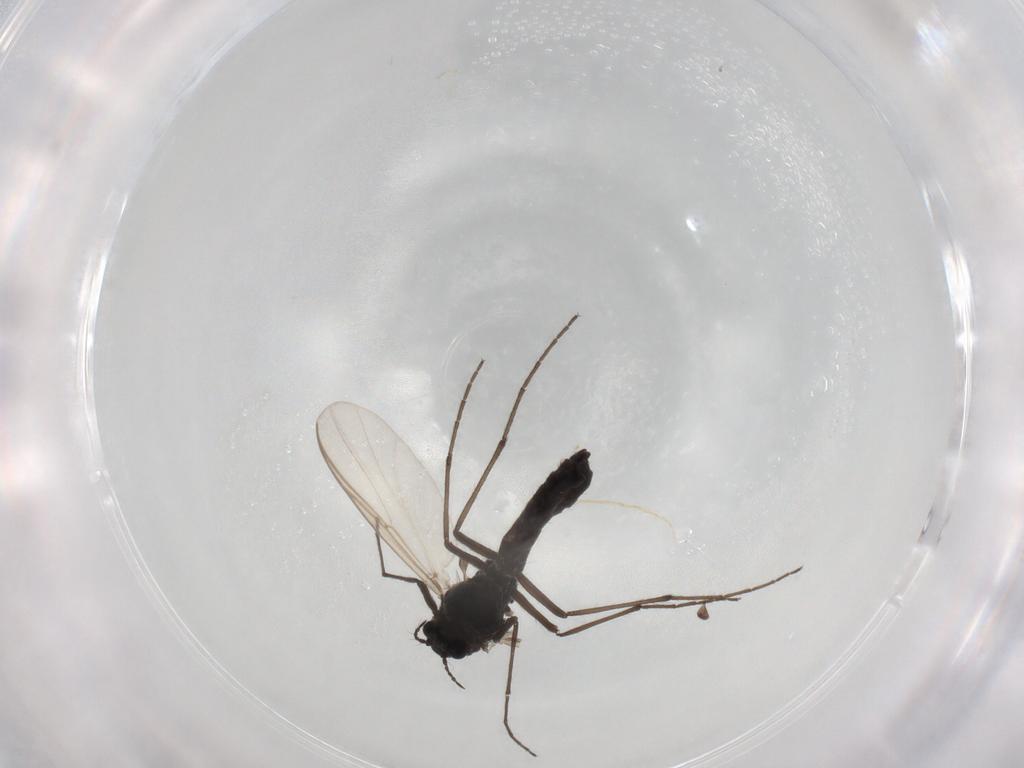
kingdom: Animalia
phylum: Arthropoda
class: Insecta
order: Diptera
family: Chironomidae
